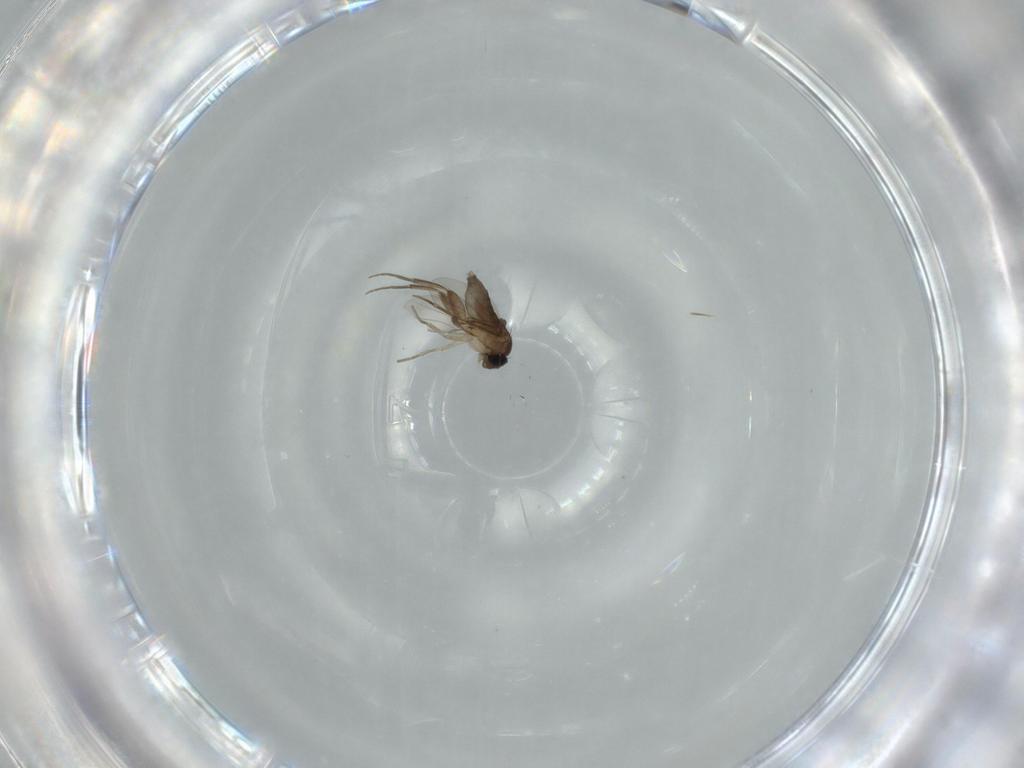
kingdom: Animalia
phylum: Arthropoda
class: Insecta
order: Diptera
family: Phoridae
